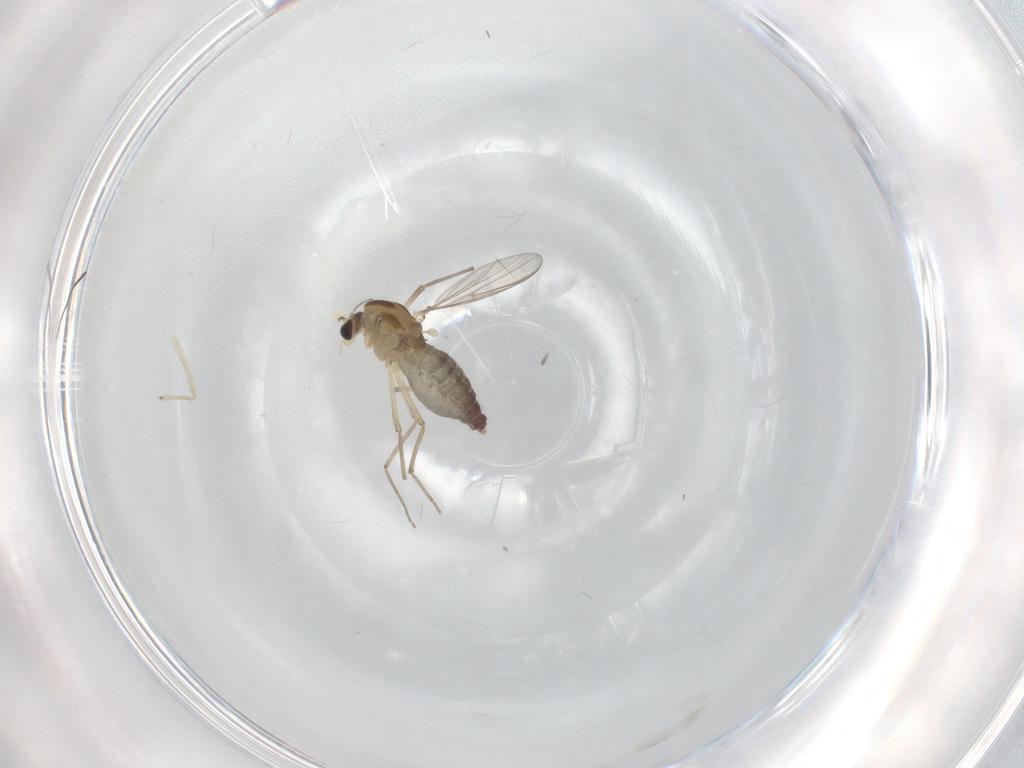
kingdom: Animalia
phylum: Arthropoda
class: Insecta
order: Diptera
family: Chironomidae
